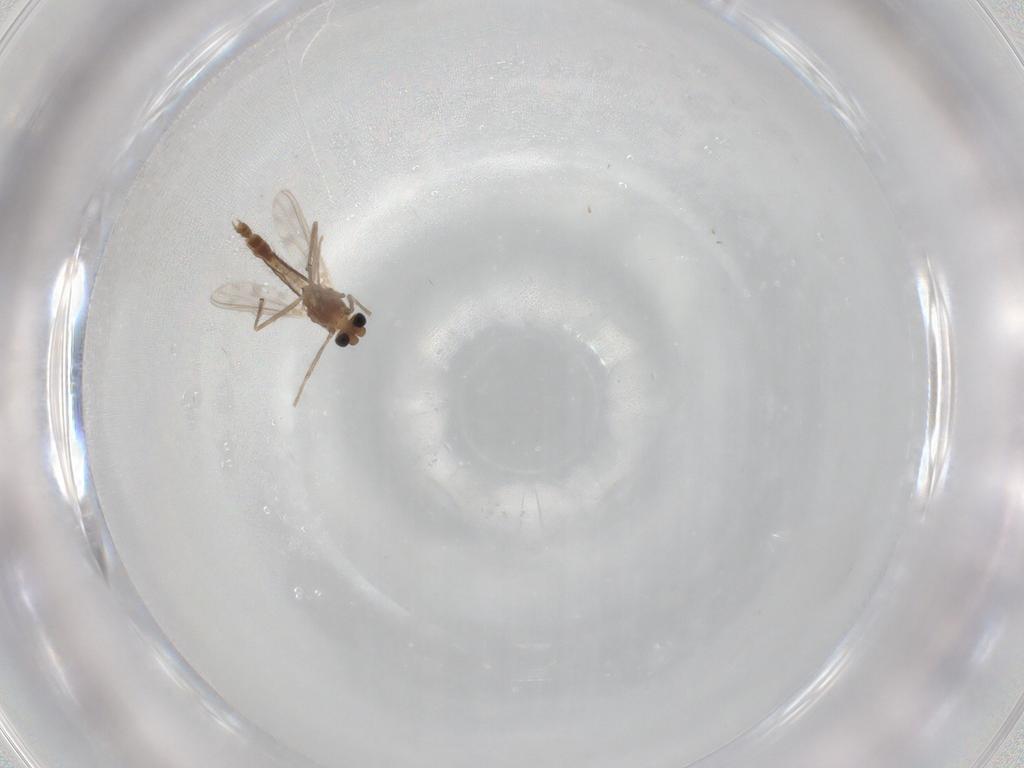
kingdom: Animalia
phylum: Arthropoda
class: Insecta
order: Diptera
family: Chironomidae
